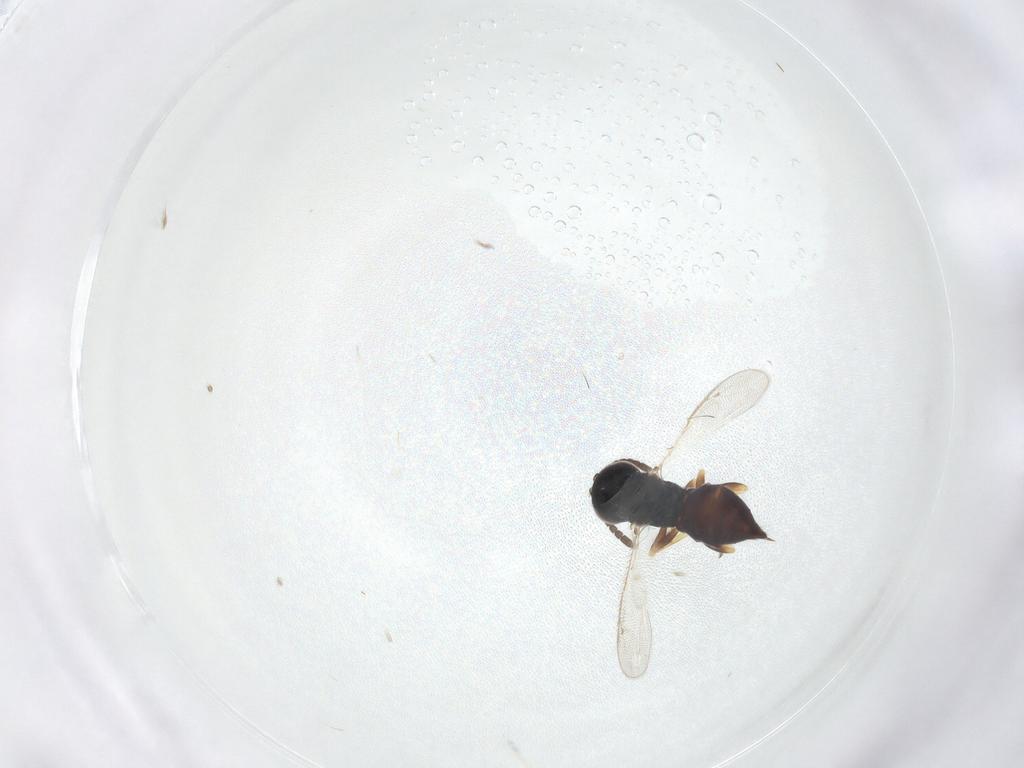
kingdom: Animalia
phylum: Arthropoda
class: Insecta
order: Hymenoptera
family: Pteromalidae
